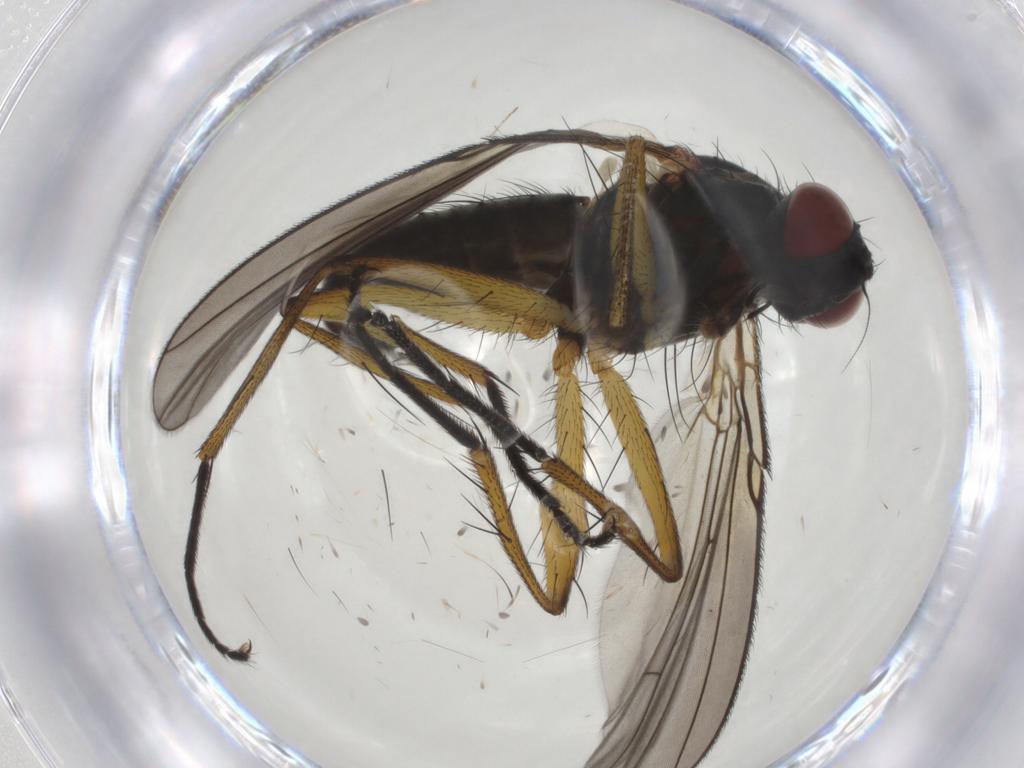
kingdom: Animalia
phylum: Arthropoda
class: Insecta
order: Diptera
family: Muscidae
